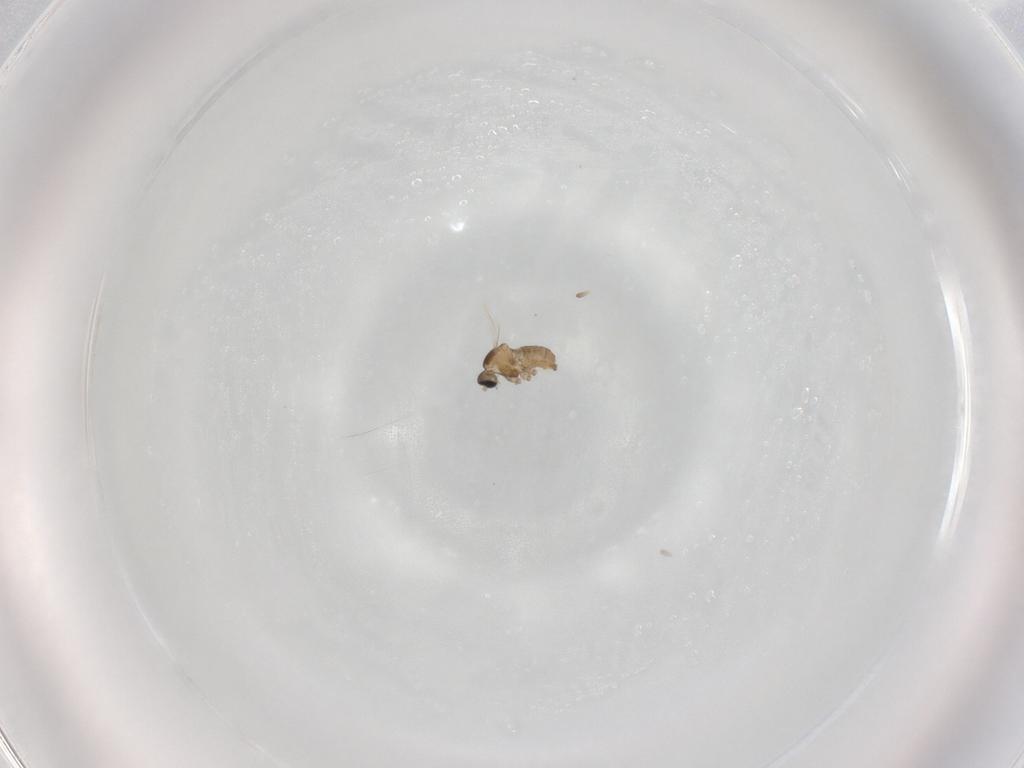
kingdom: Animalia
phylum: Arthropoda
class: Insecta
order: Diptera
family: Cecidomyiidae
